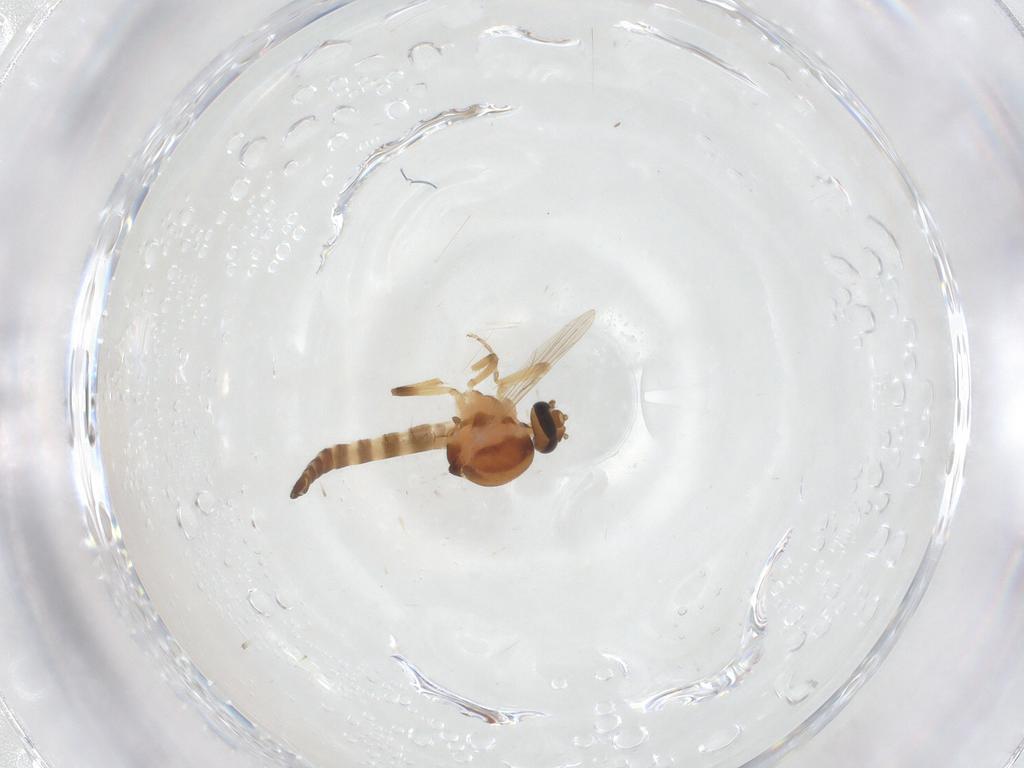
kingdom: Animalia
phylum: Arthropoda
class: Insecta
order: Diptera
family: Ceratopogonidae
